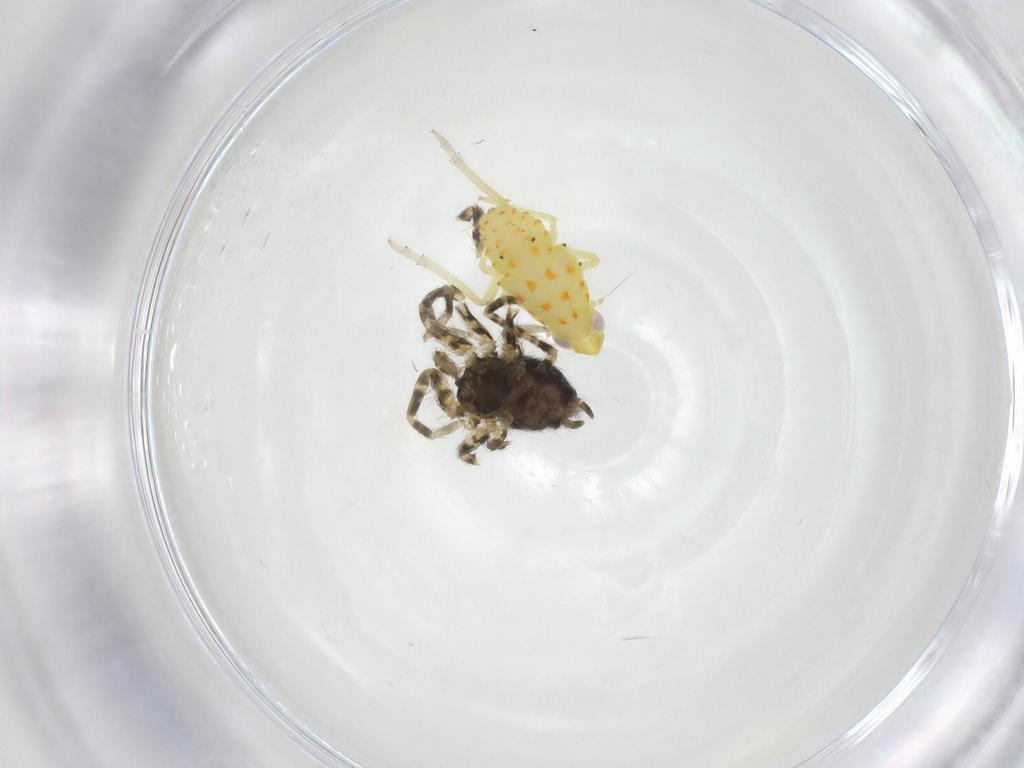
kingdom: Animalia
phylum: Arthropoda
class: Insecta
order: Hemiptera
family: Tropiduchidae
